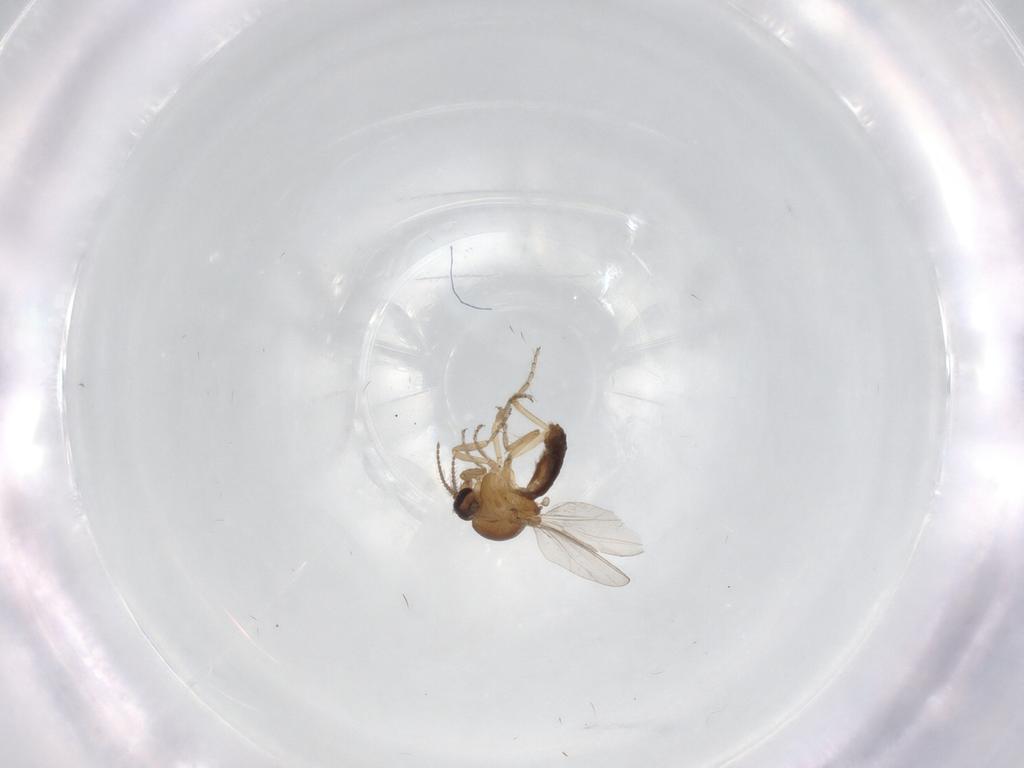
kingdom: Animalia
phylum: Arthropoda
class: Insecta
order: Diptera
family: Ceratopogonidae
